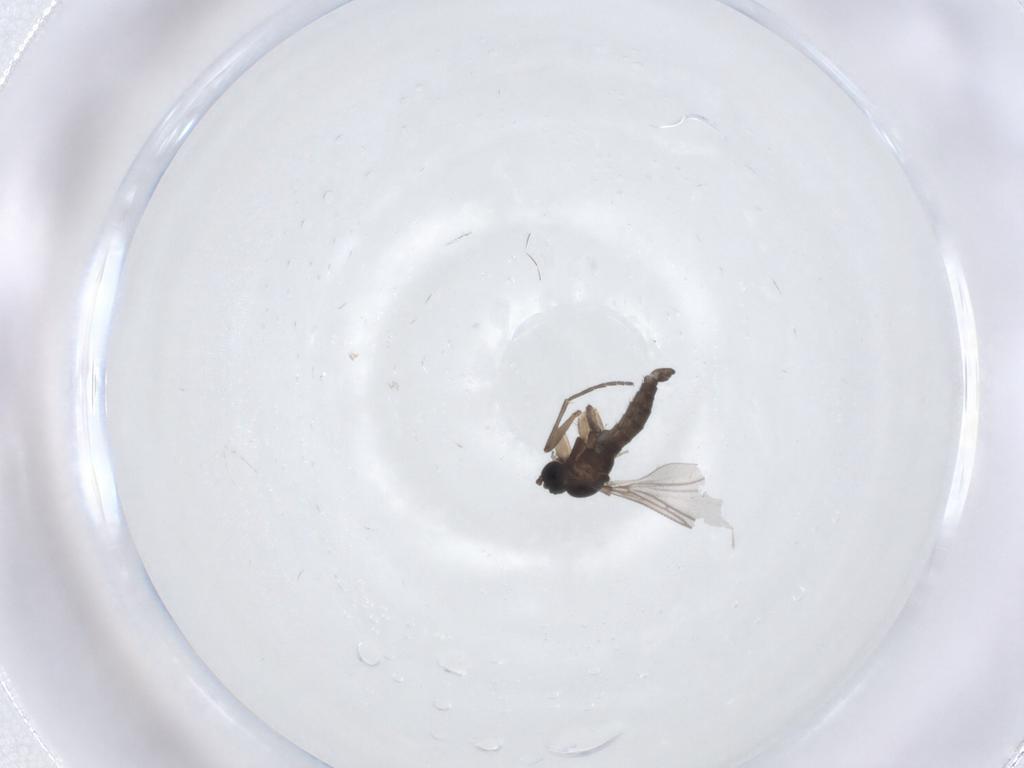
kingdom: Animalia
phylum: Arthropoda
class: Insecta
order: Diptera
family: Sciaridae
